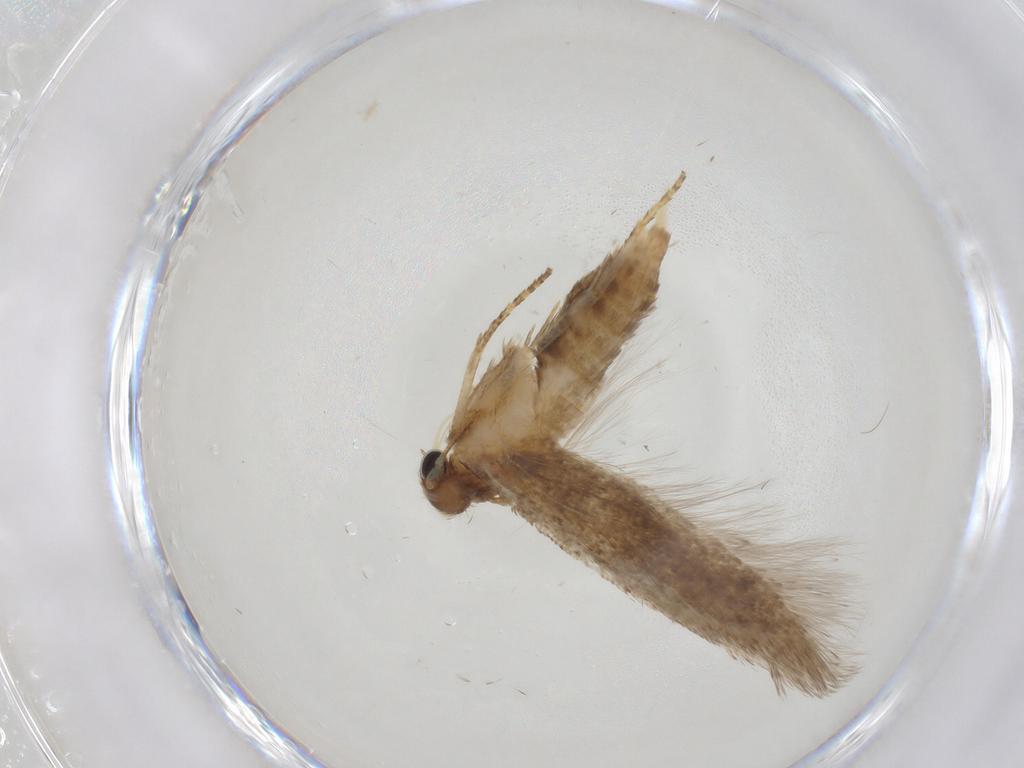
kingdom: Animalia
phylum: Arthropoda
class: Insecta
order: Lepidoptera
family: Blastobasidae
